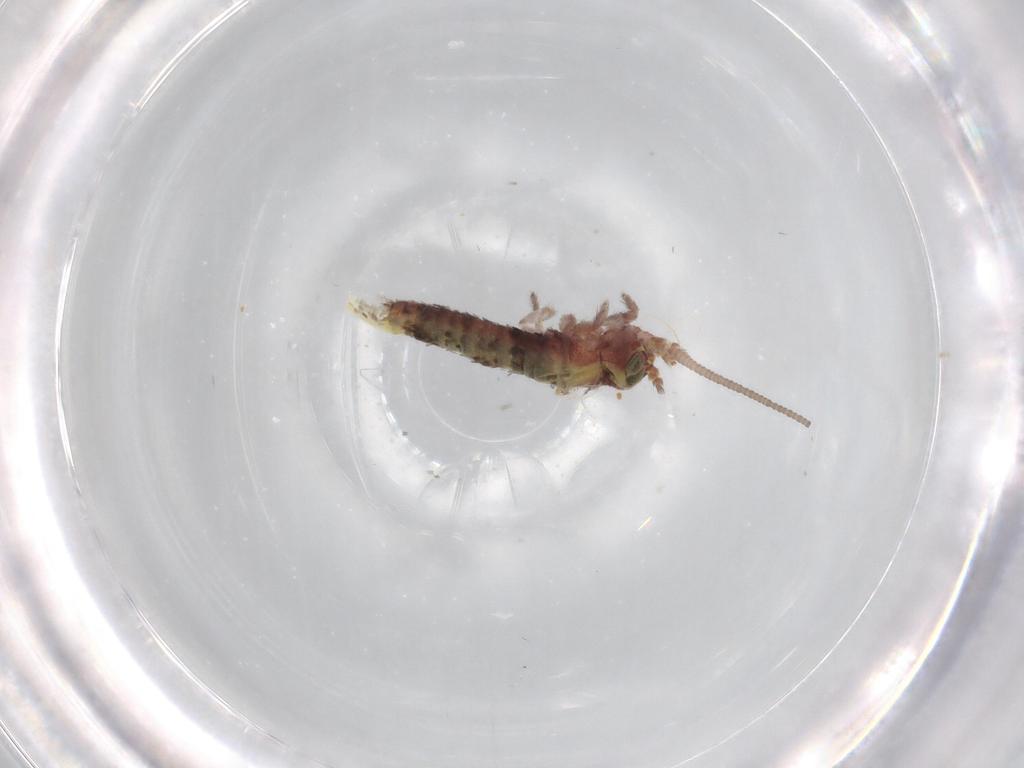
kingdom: Animalia
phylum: Arthropoda
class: Insecta
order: Archaeognatha
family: Machilidae
